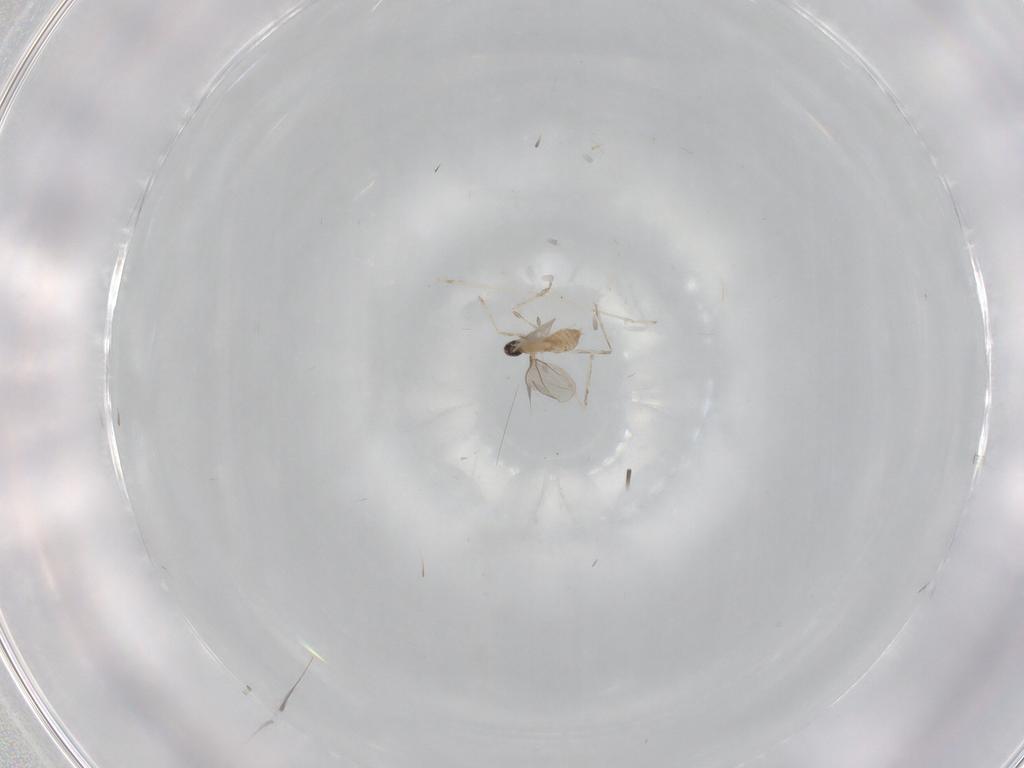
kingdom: Animalia
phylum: Arthropoda
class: Insecta
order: Diptera
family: Cecidomyiidae
